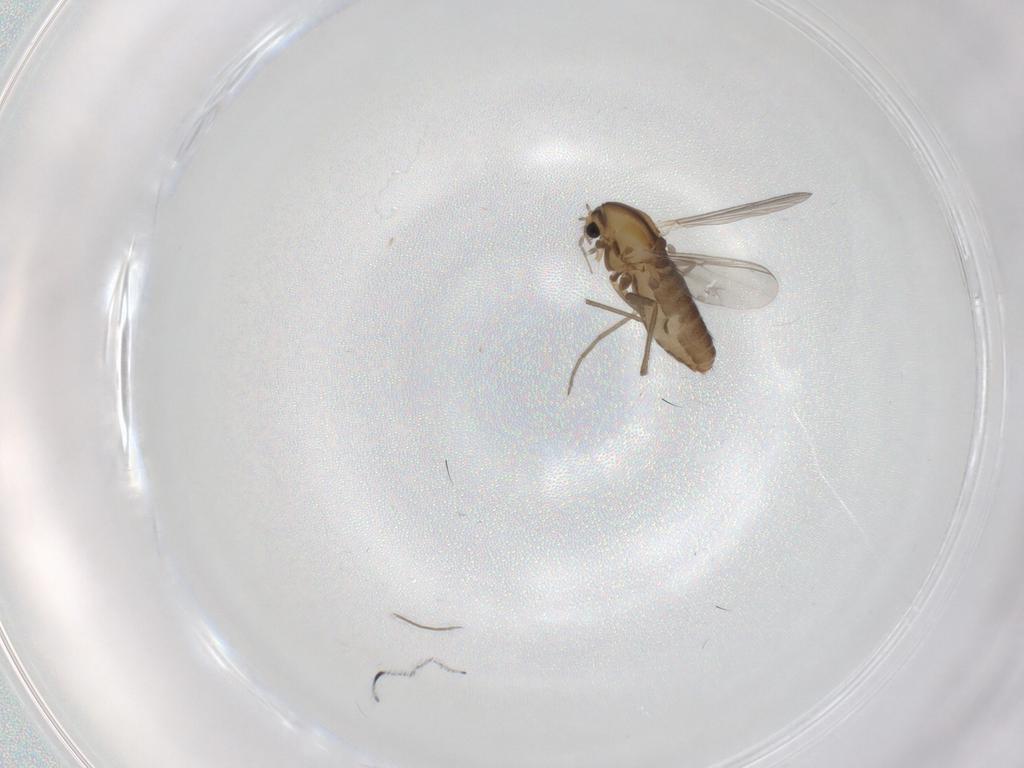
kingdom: Animalia
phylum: Arthropoda
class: Insecta
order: Diptera
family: Chironomidae
